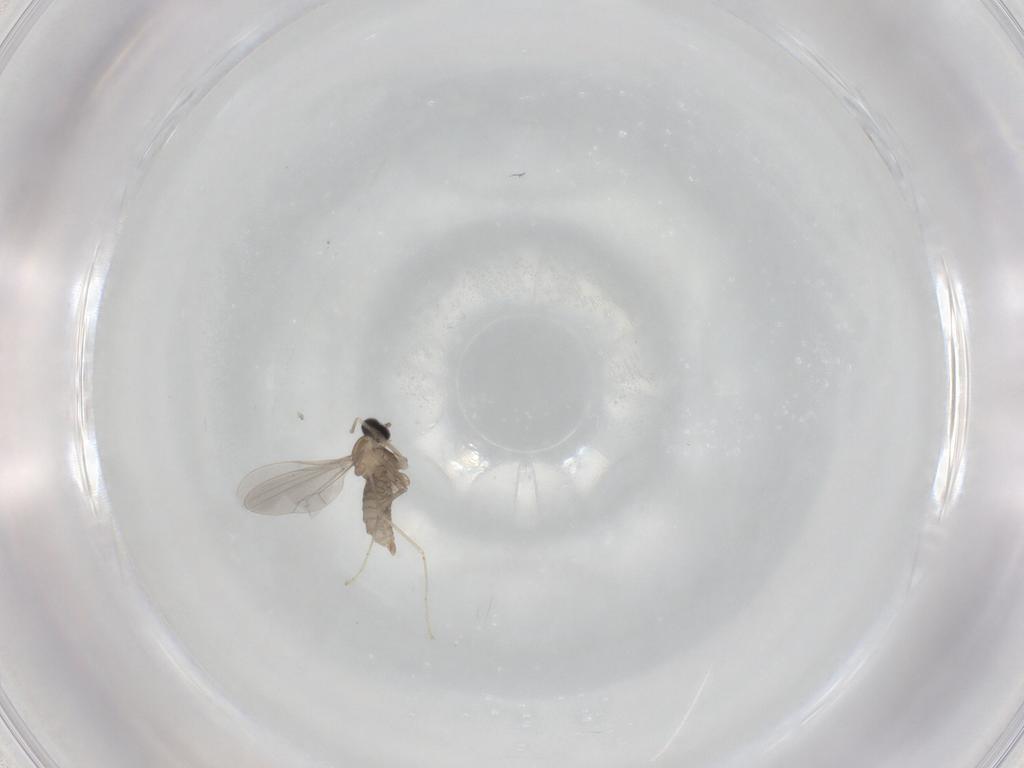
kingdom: Animalia
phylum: Arthropoda
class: Insecta
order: Diptera
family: Cecidomyiidae
